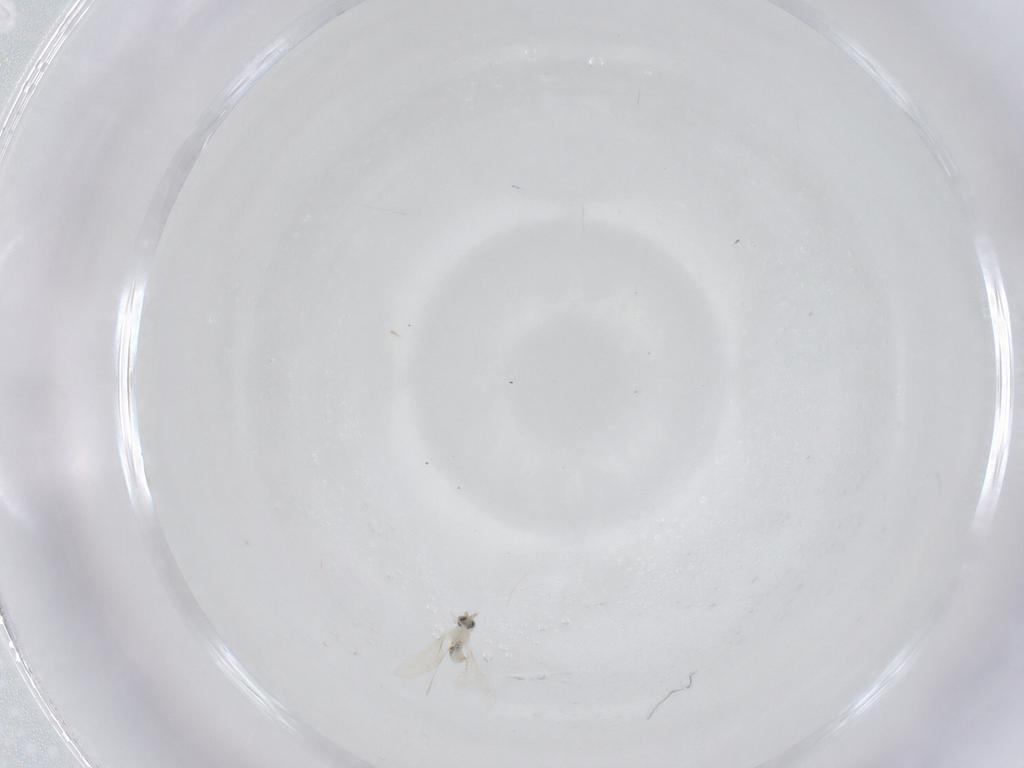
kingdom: Animalia
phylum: Arthropoda
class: Insecta
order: Diptera
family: Cecidomyiidae
